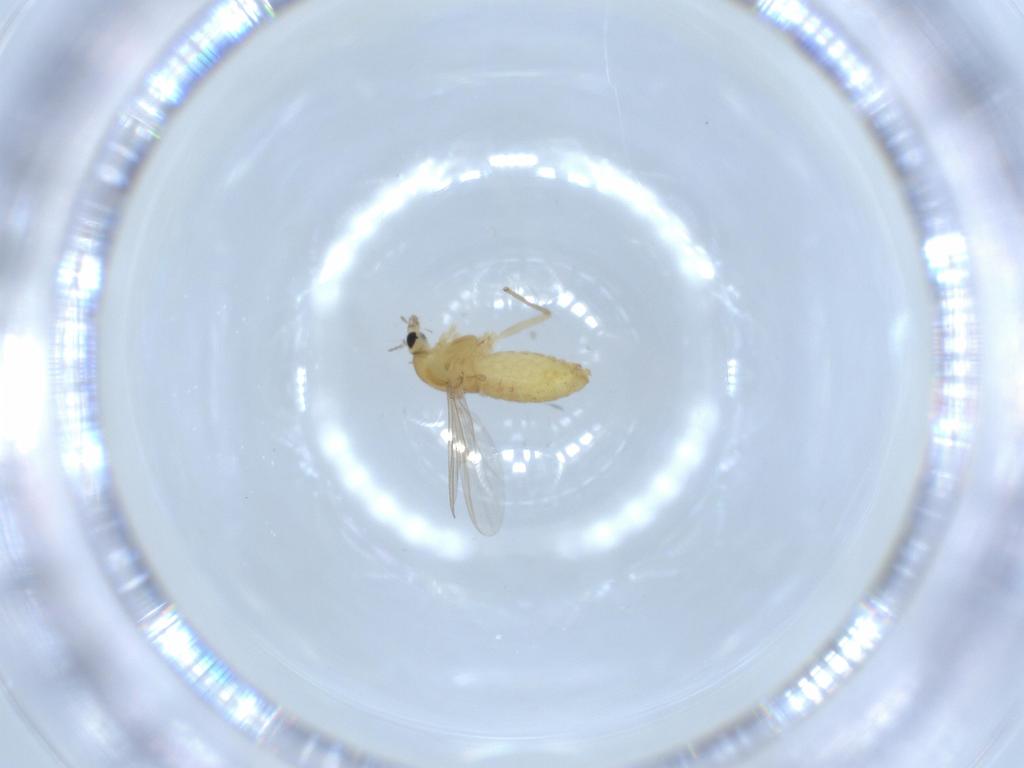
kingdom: Animalia
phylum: Arthropoda
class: Insecta
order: Diptera
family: Chironomidae
